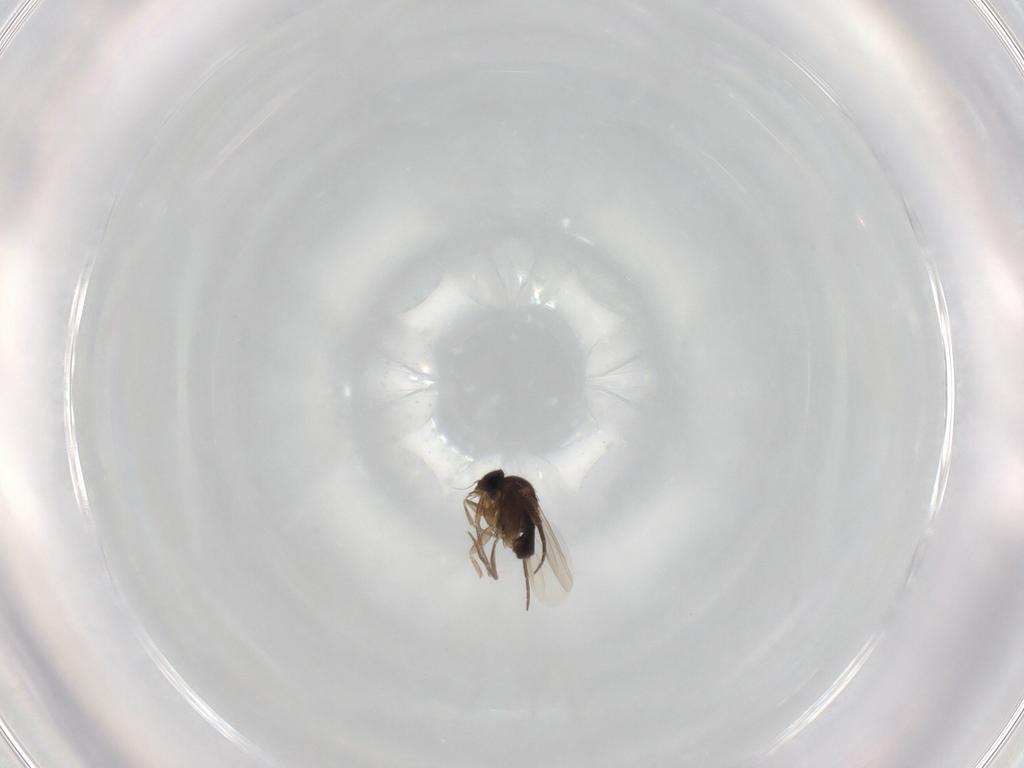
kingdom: Animalia
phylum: Arthropoda
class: Insecta
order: Diptera
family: Phoridae
